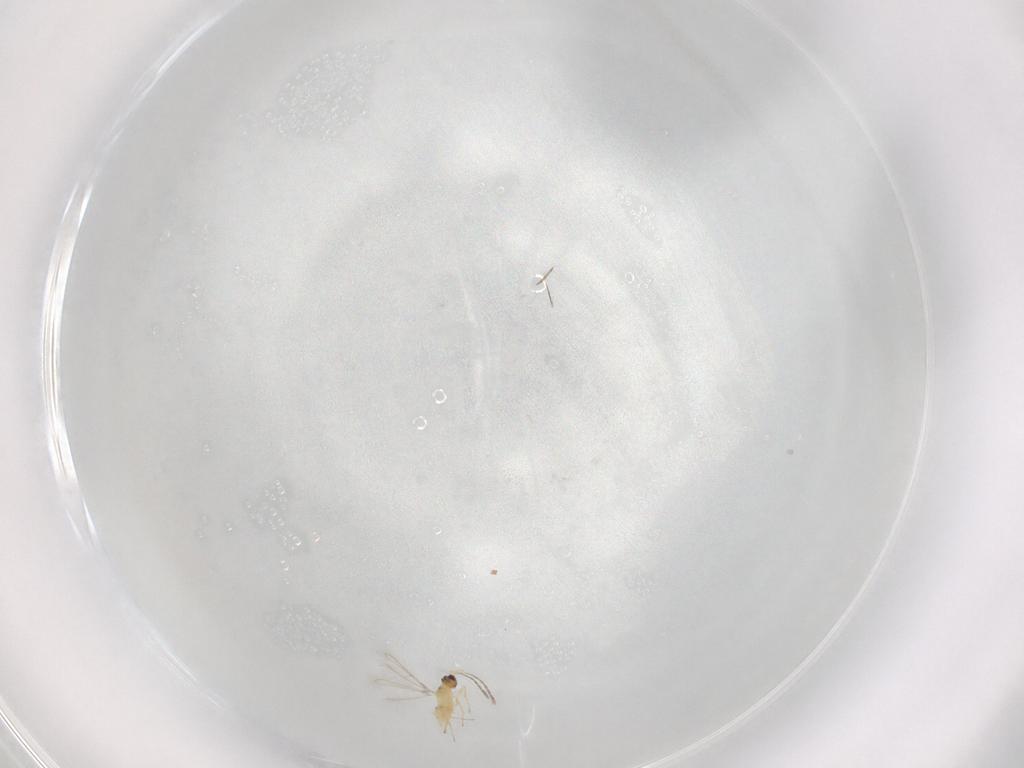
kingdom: Animalia
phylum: Arthropoda
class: Insecta
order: Hymenoptera
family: Mymaridae
